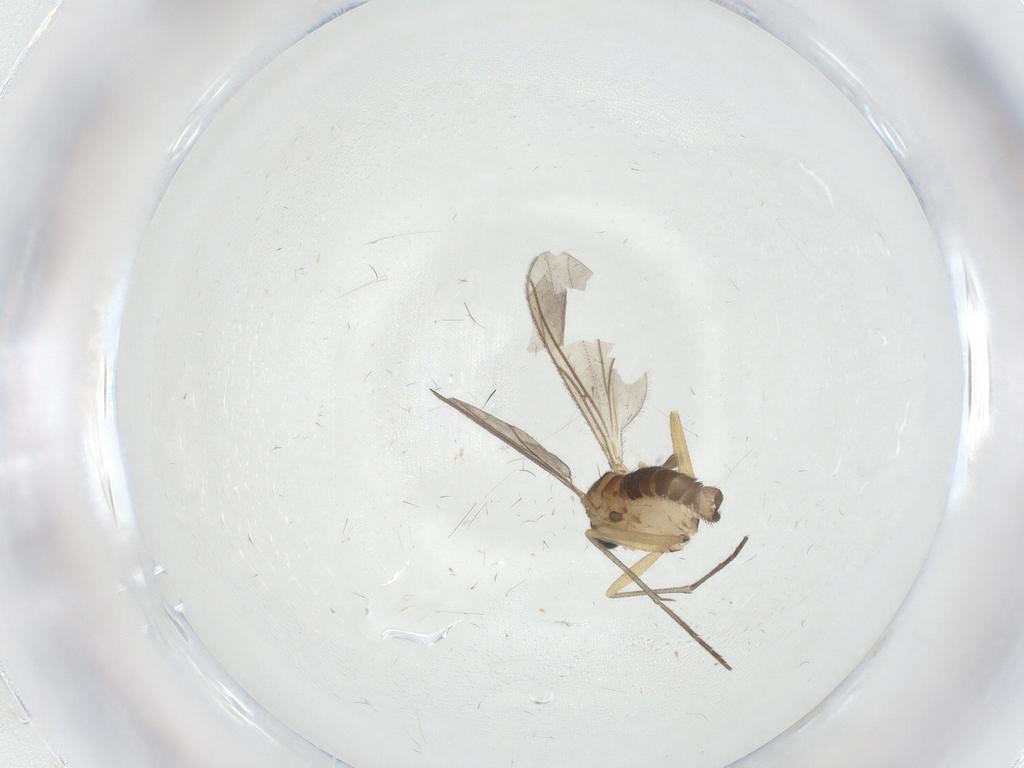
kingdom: Animalia
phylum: Arthropoda
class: Insecta
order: Diptera
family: Sciaridae
